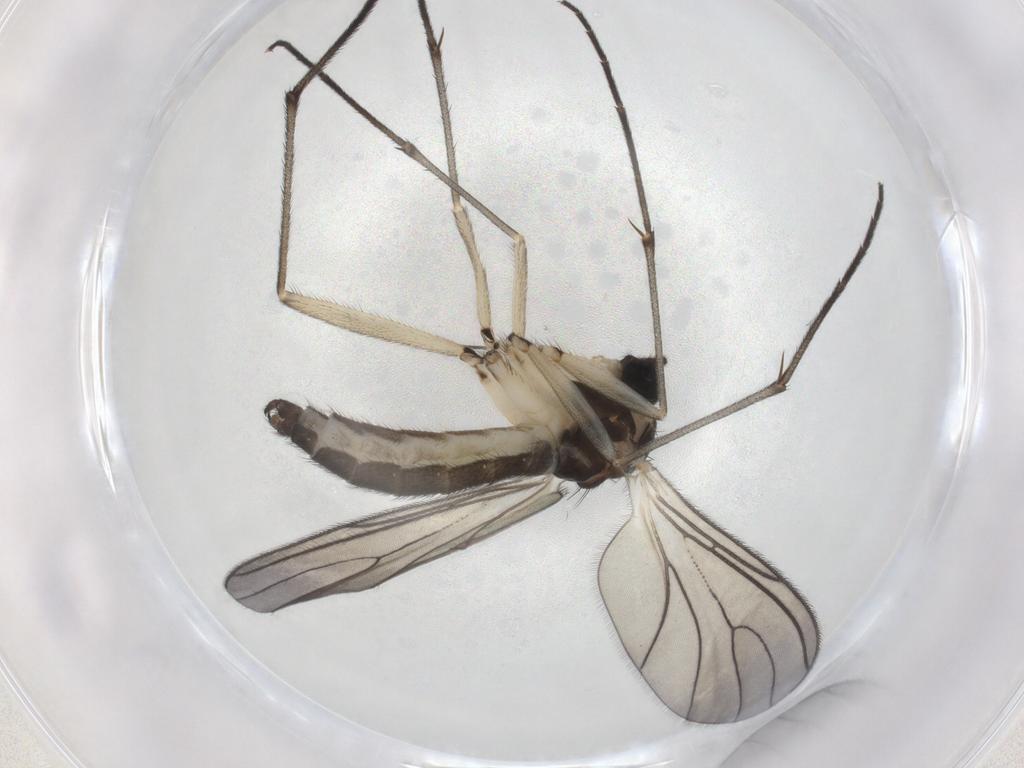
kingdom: Animalia
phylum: Arthropoda
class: Insecta
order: Diptera
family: Sciaridae
